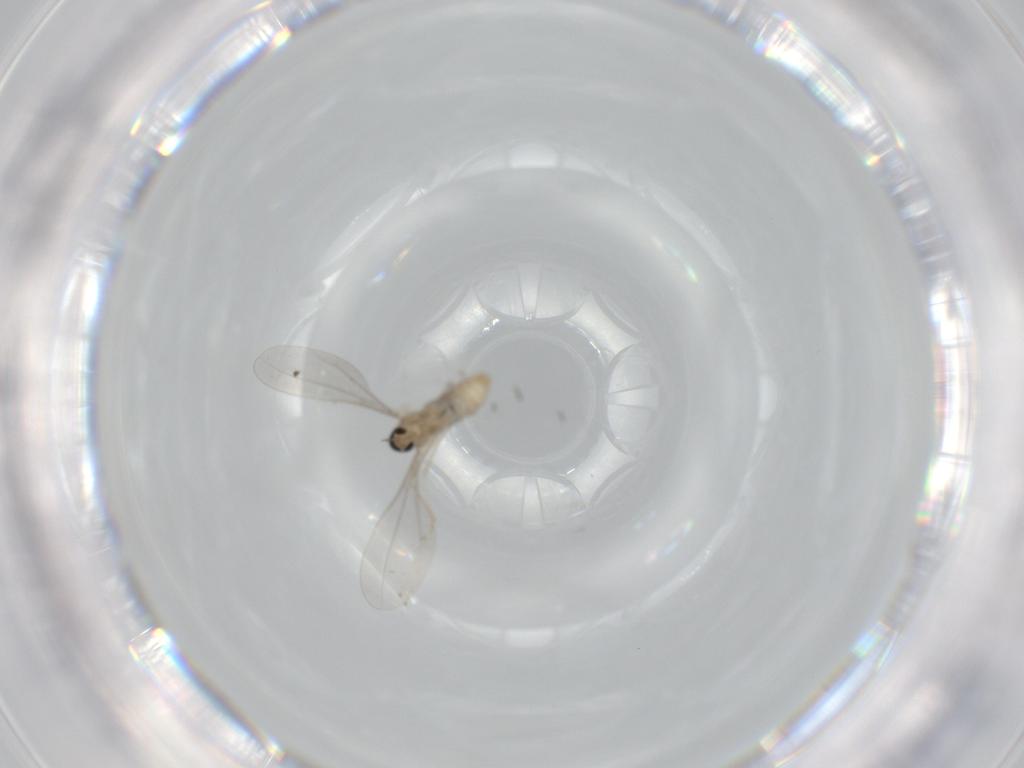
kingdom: Animalia
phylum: Arthropoda
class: Insecta
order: Diptera
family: Cecidomyiidae
